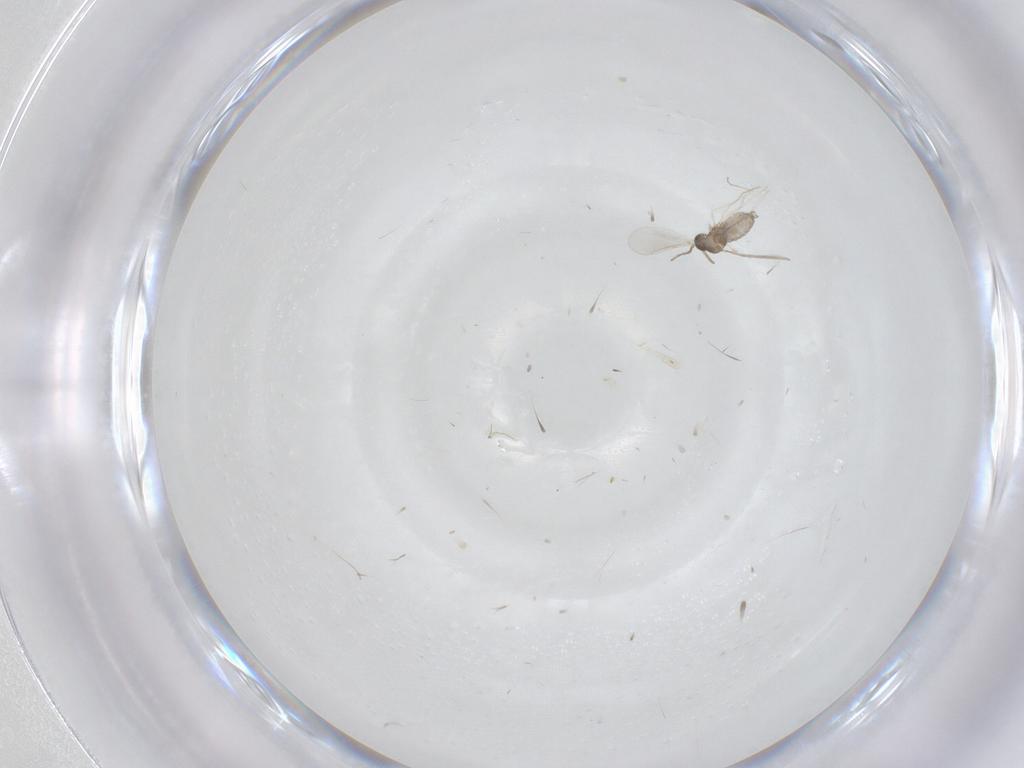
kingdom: Animalia
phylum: Arthropoda
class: Insecta
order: Diptera
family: Cecidomyiidae
